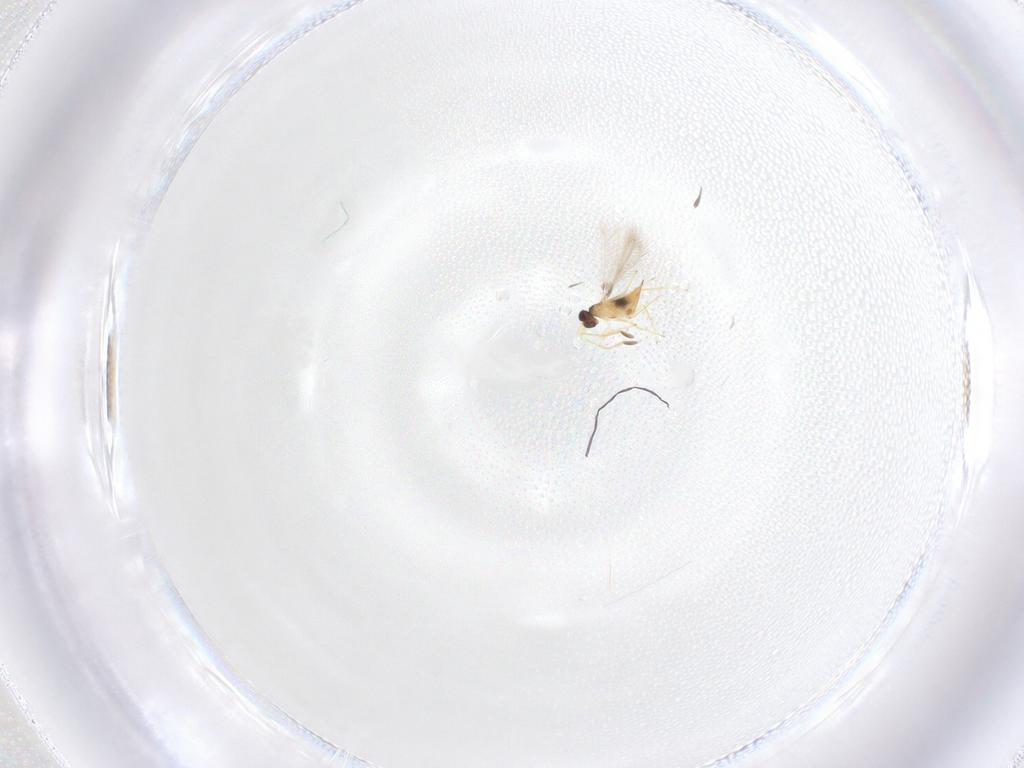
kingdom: Animalia
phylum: Arthropoda
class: Insecta
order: Hymenoptera
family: Mymaridae
